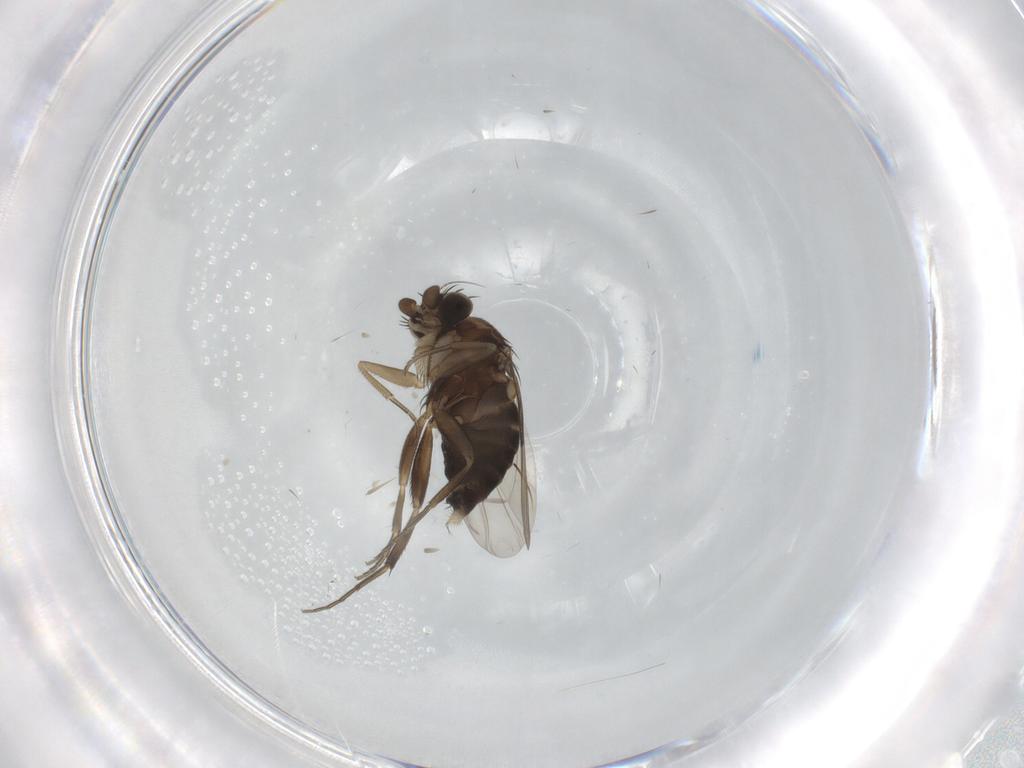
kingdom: Animalia
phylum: Arthropoda
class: Insecta
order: Diptera
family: Phoridae
